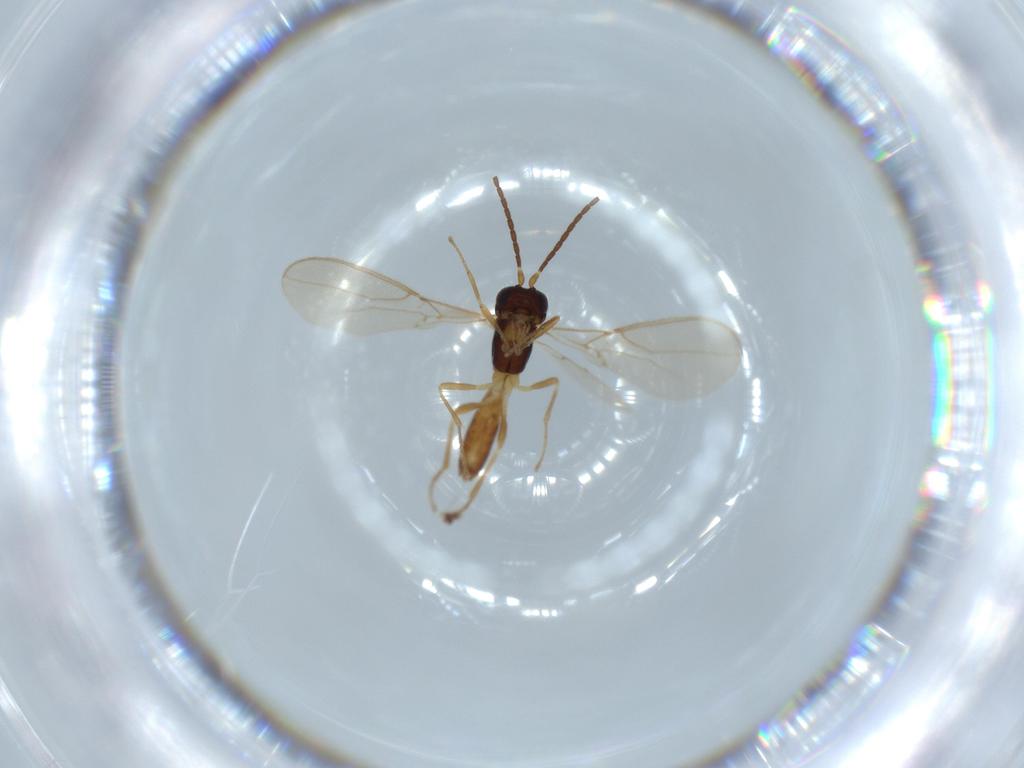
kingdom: Animalia
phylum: Arthropoda
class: Insecta
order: Hymenoptera
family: Braconidae
